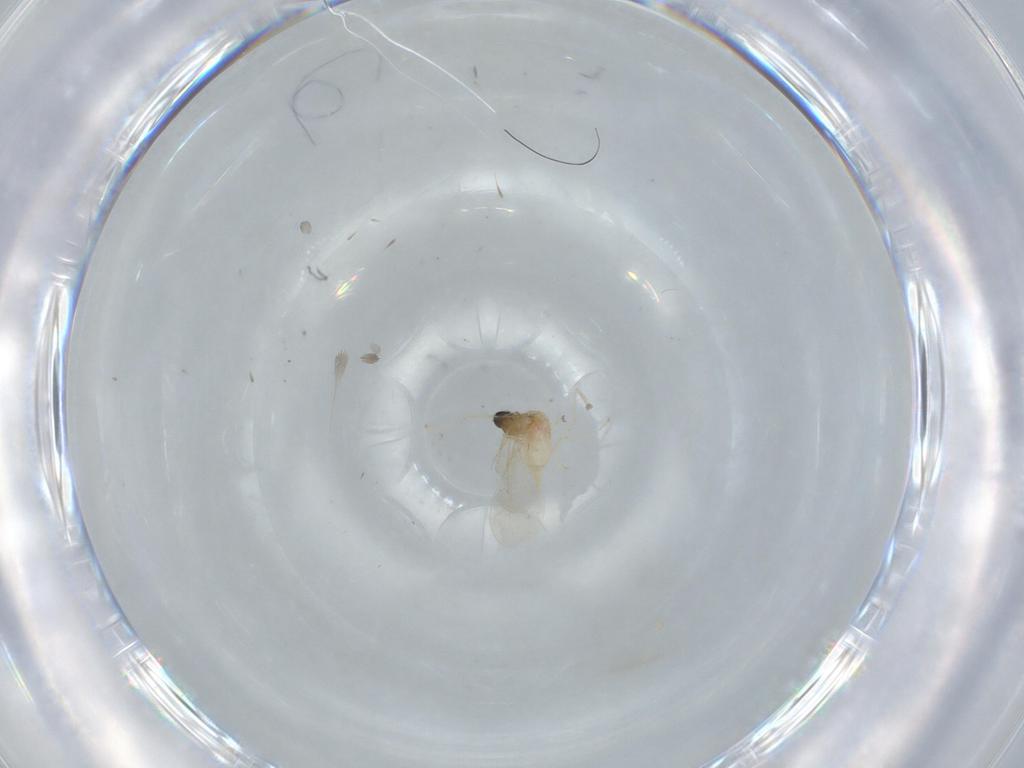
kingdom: Animalia
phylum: Arthropoda
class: Insecta
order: Diptera
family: Cecidomyiidae
